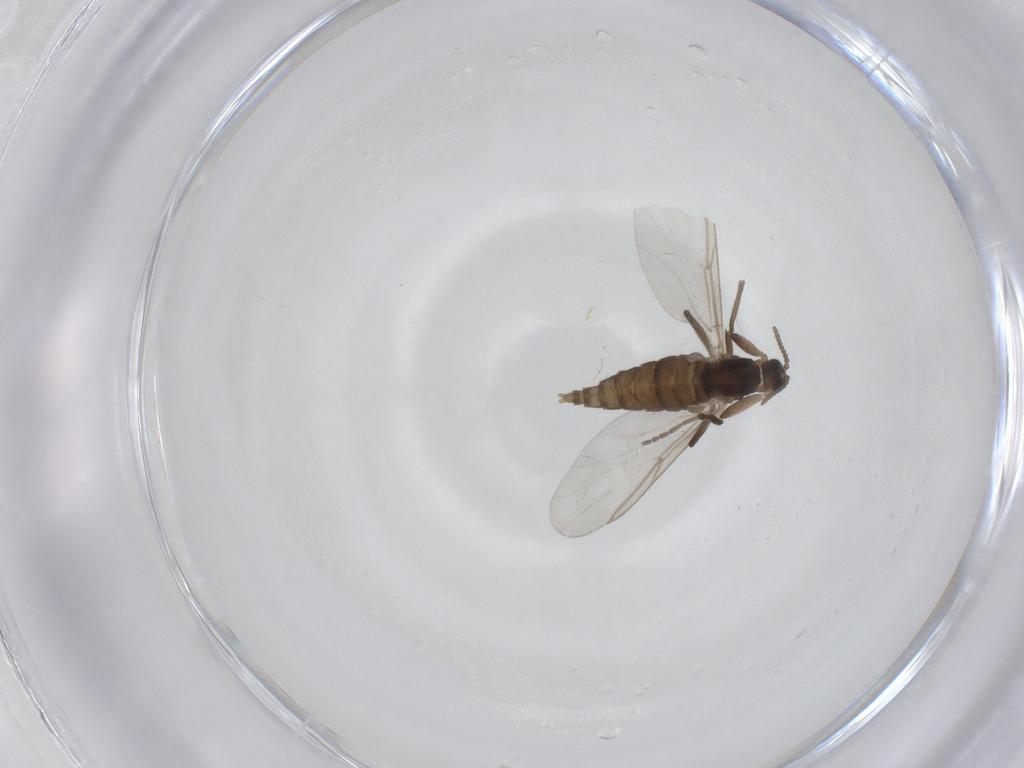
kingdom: Animalia
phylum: Arthropoda
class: Insecta
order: Diptera
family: Cecidomyiidae
